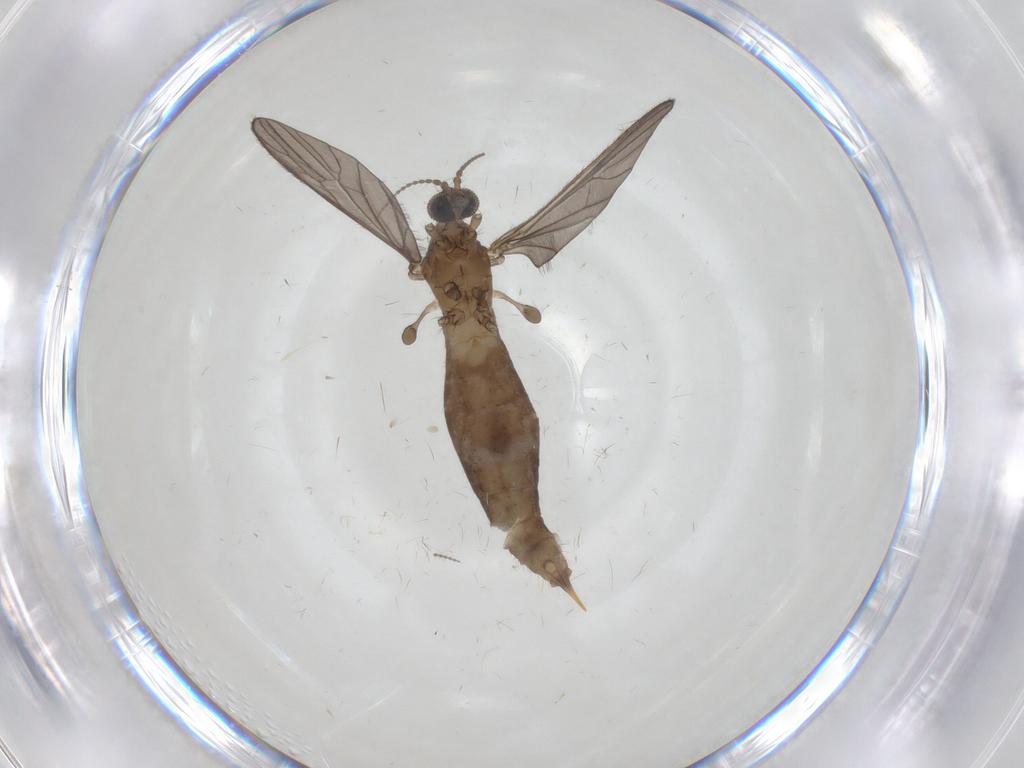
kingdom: Animalia
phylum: Arthropoda
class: Insecta
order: Diptera
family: Limoniidae
